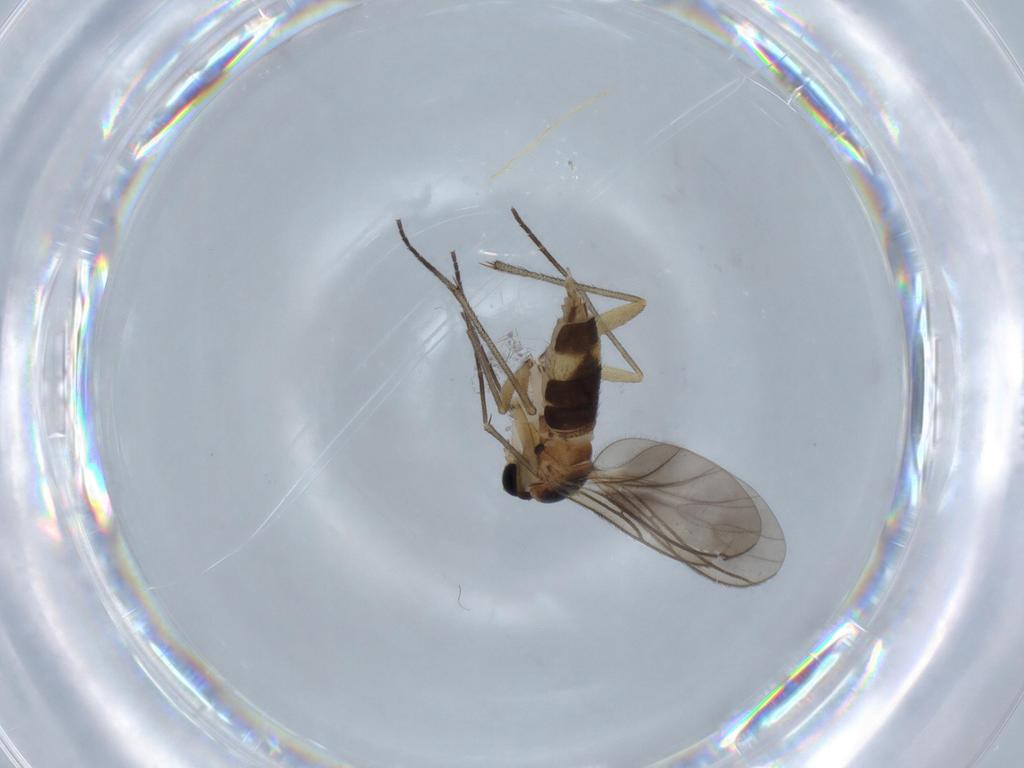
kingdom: Animalia
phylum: Arthropoda
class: Insecta
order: Diptera
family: Sciaridae
